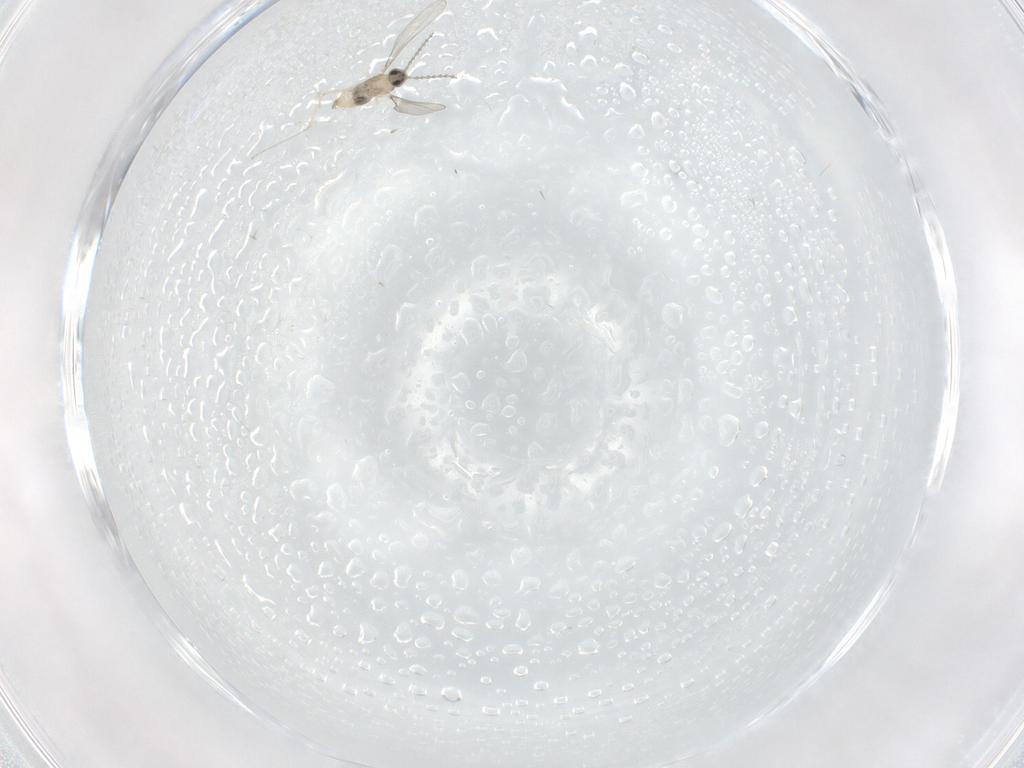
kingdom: Animalia
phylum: Arthropoda
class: Insecta
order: Diptera
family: Cecidomyiidae
